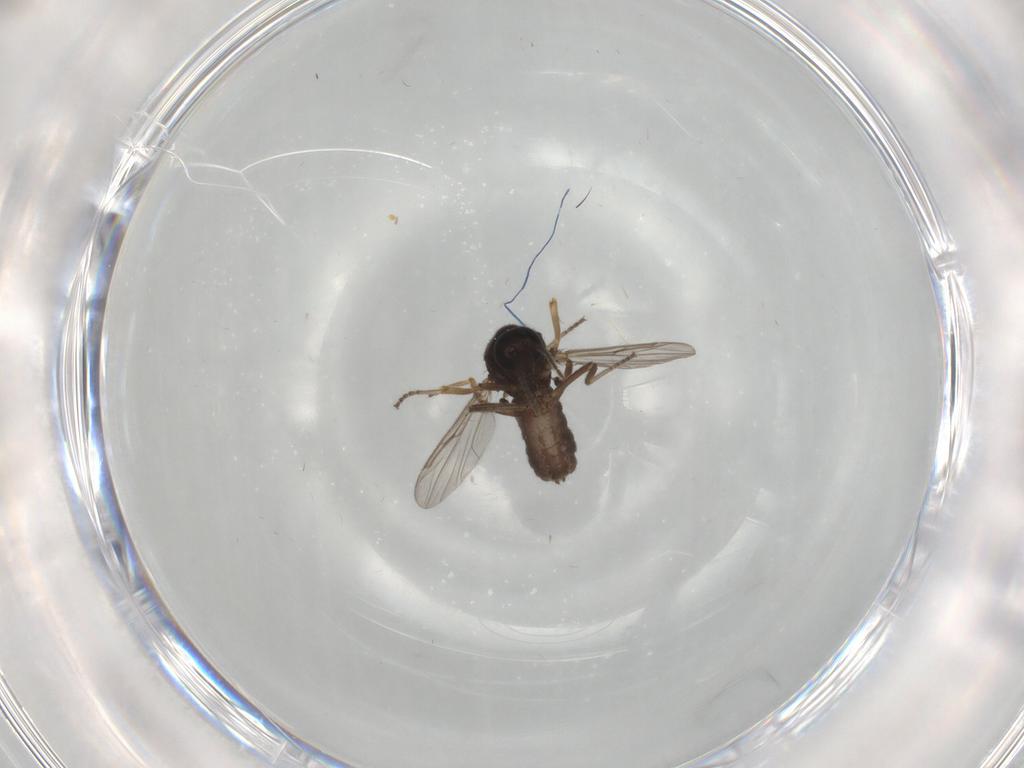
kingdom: Animalia
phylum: Arthropoda
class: Insecta
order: Diptera
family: Ceratopogonidae
